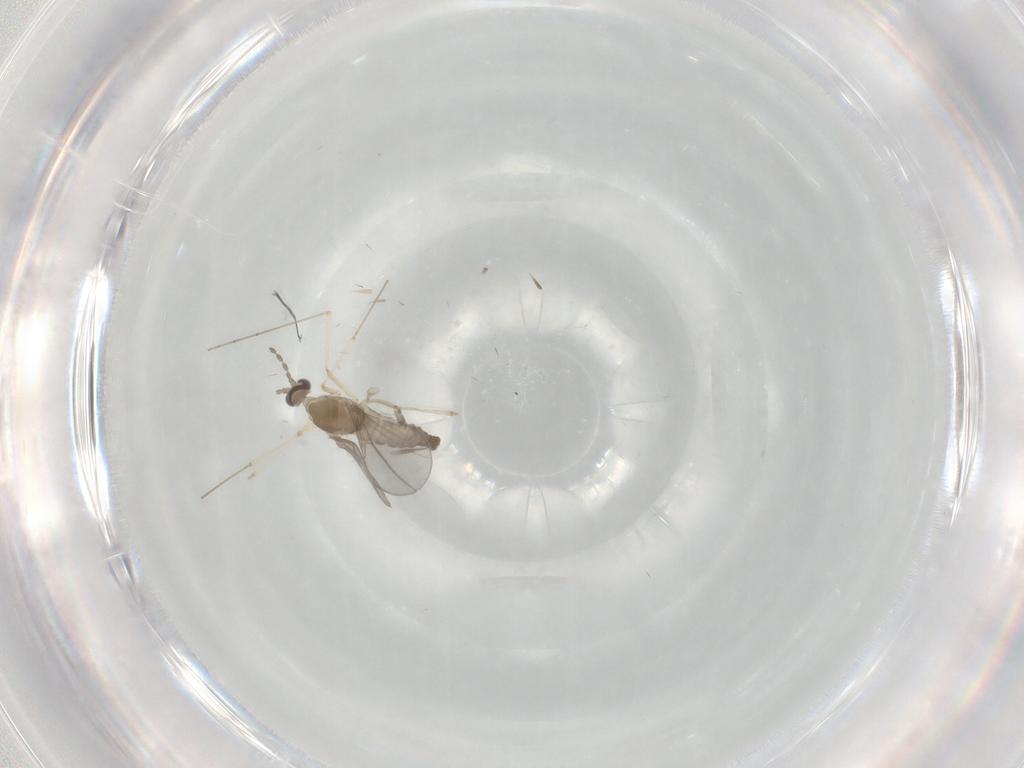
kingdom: Animalia
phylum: Arthropoda
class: Insecta
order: Diptera
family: Cecidomyiidae
